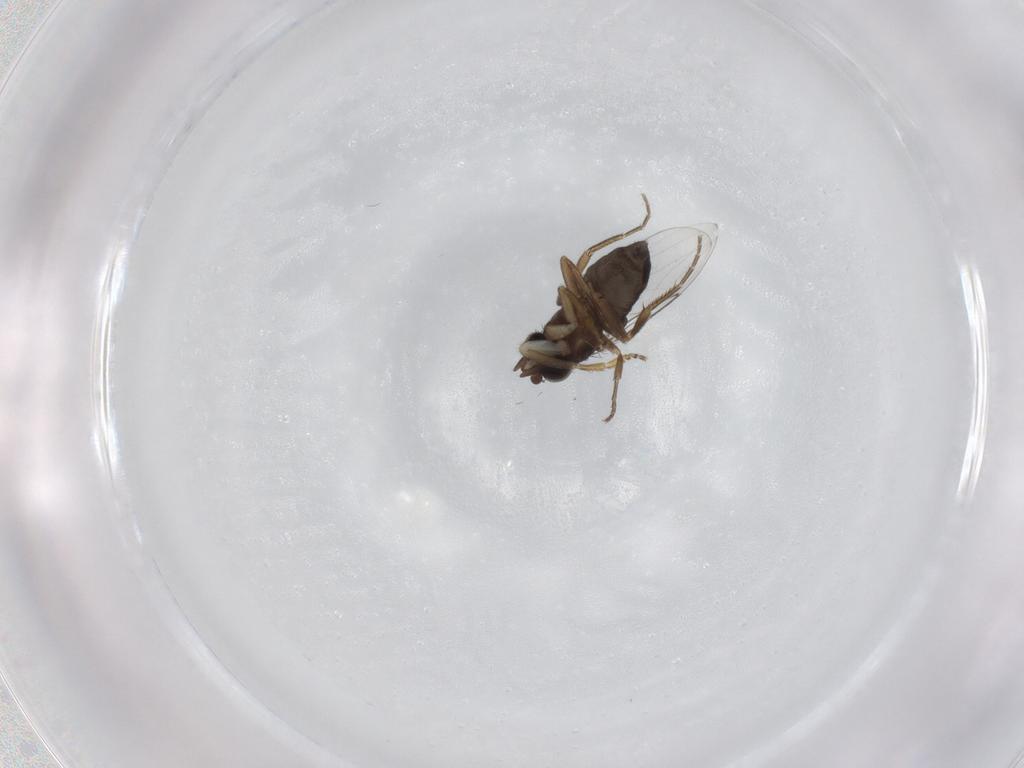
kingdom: Animalia
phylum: Arthropoda
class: Insecta
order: Diptera
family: Phoridae
